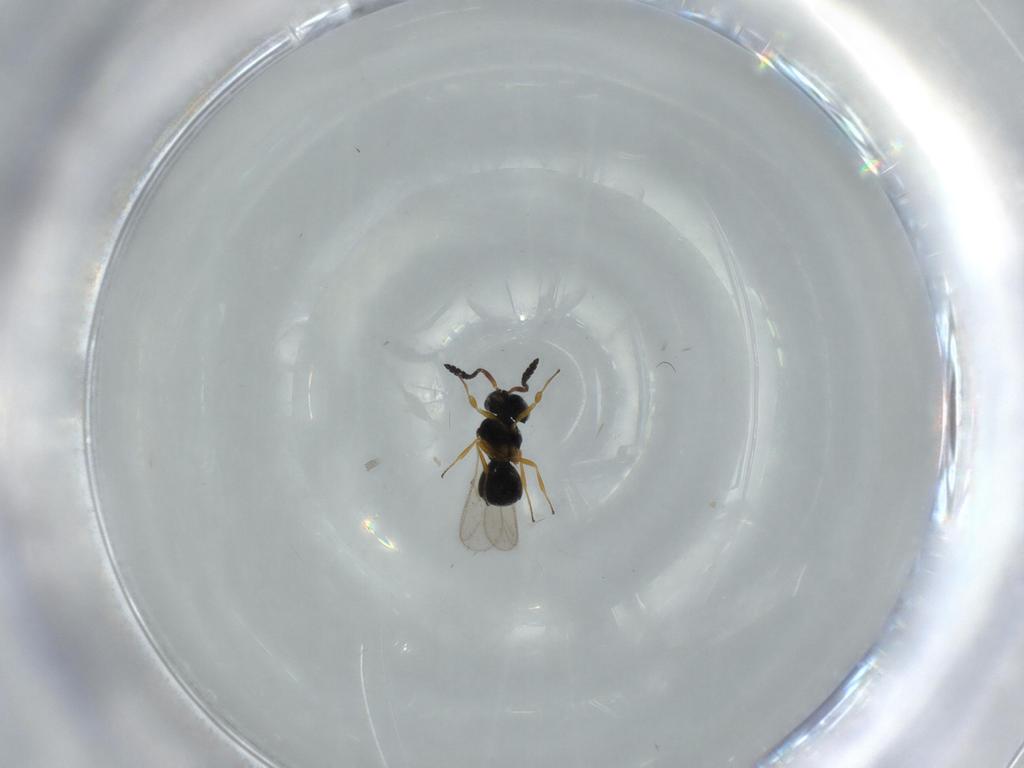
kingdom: Animalia
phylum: Arthropoda
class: Insecta
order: Hymenoptera
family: Scelionidae
